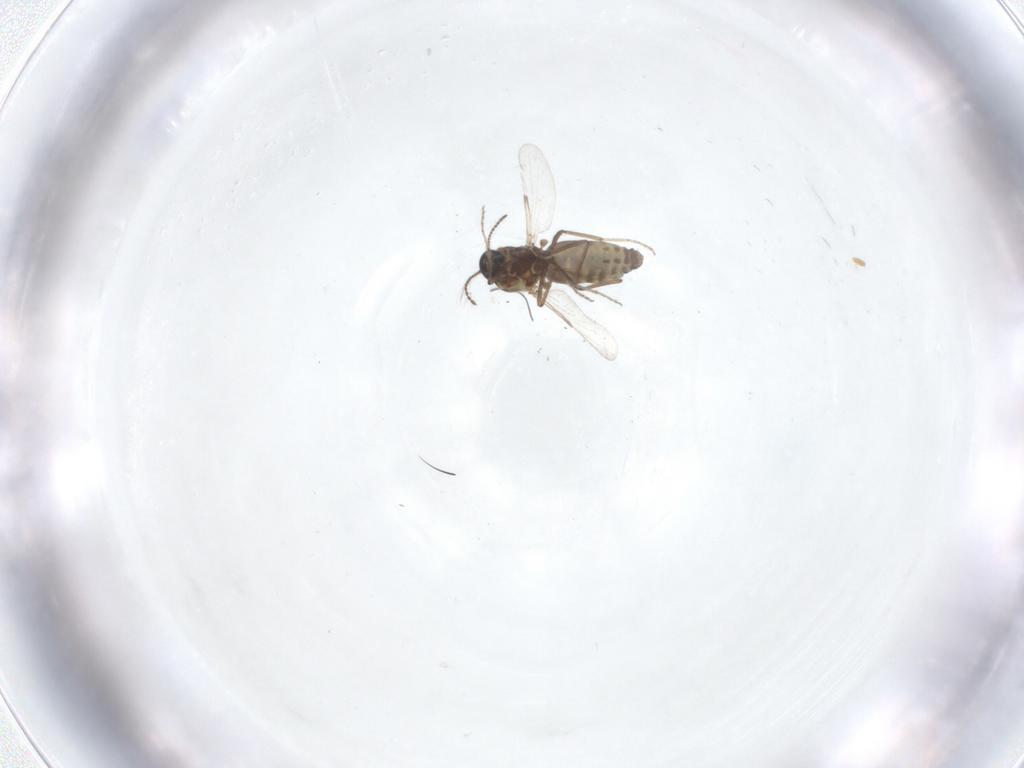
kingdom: Animalia
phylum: Arthropoda
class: Insecta
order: Diptera
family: Ceratopogonidae
